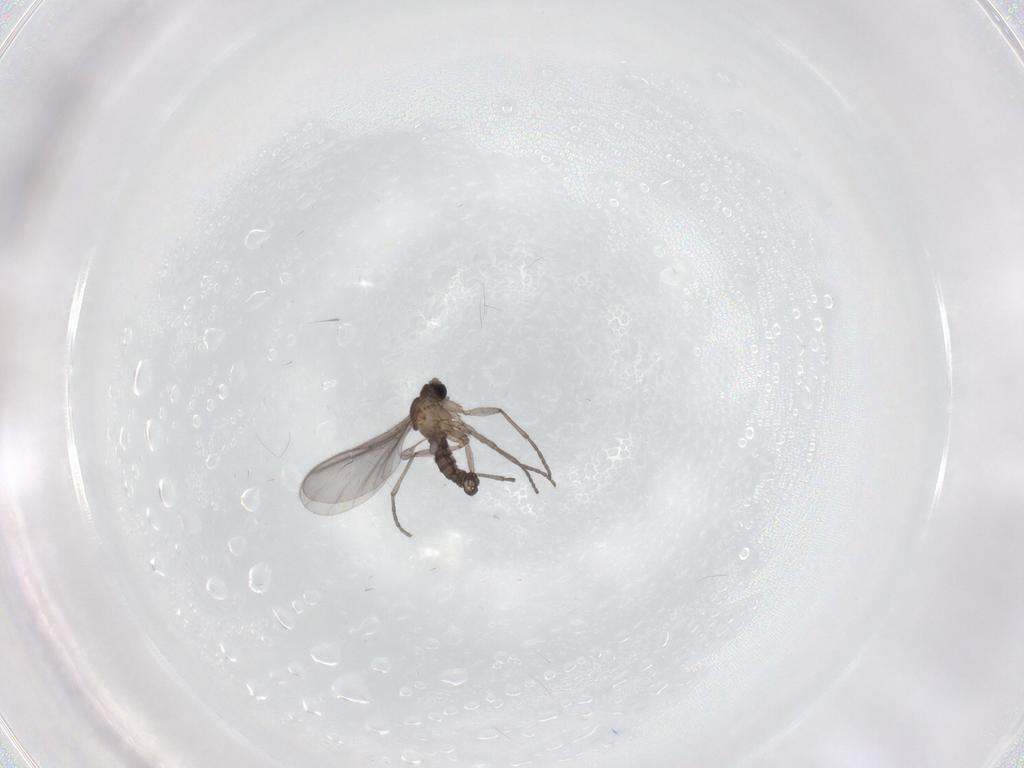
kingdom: Animalia
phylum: Arthropoda
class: Insecta
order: Diptera
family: Sciaridae
